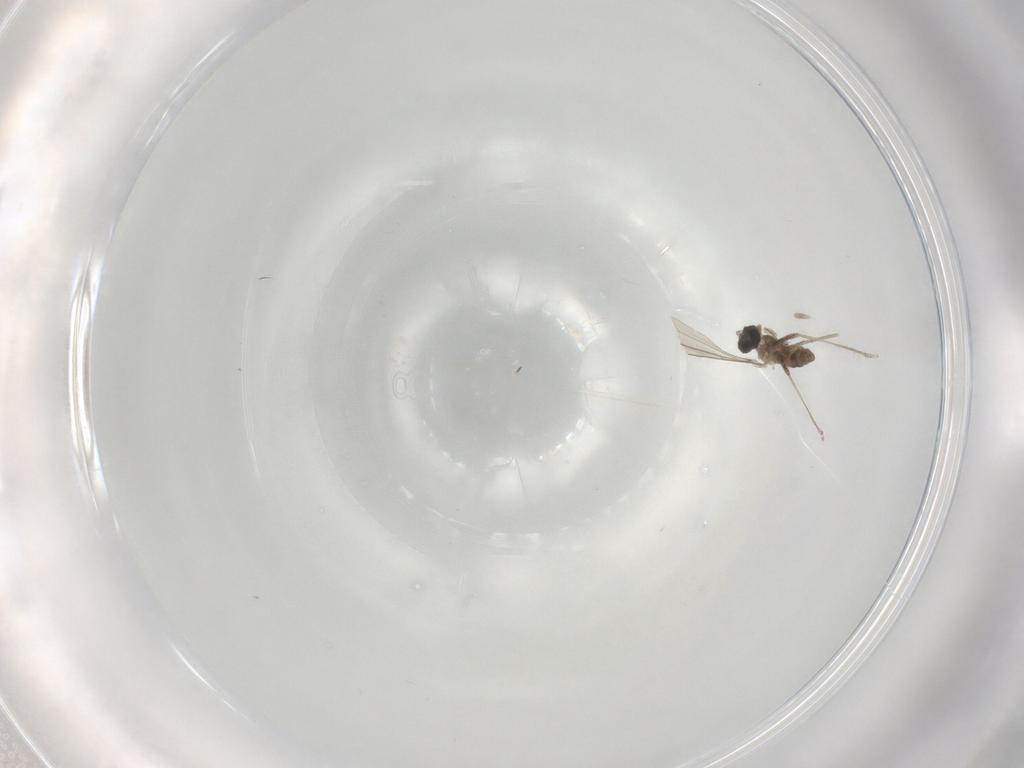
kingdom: Animalia
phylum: Arthropoda
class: Insecta
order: Diptera
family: Cecidomyiidae
